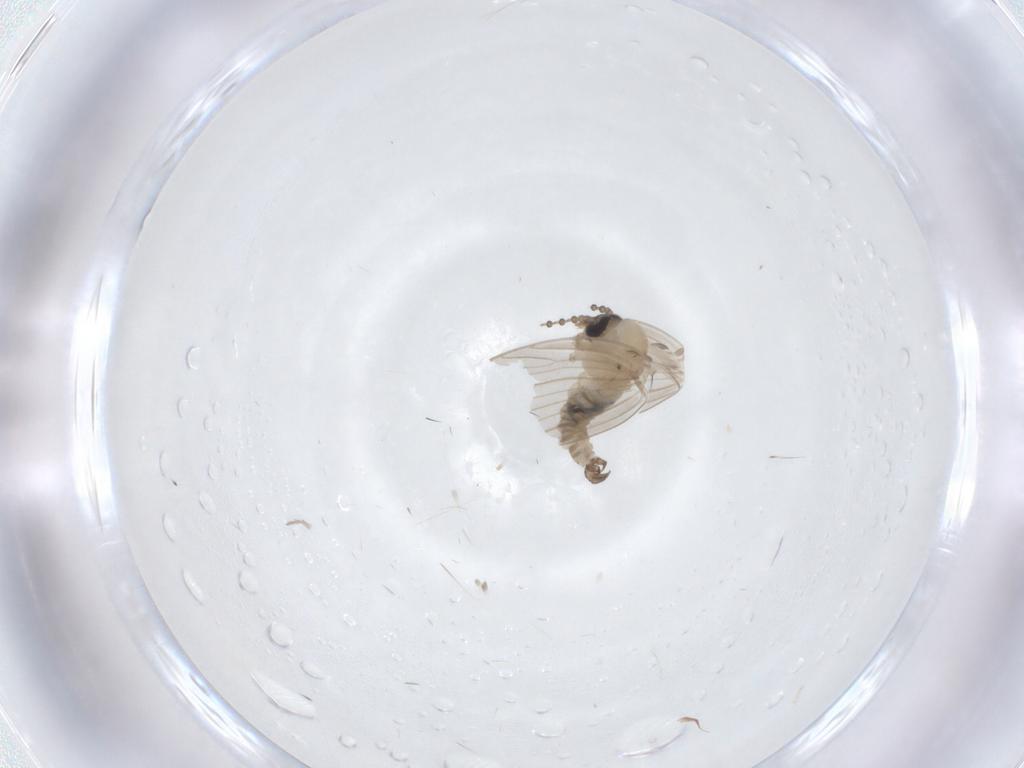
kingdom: Animalia
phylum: Arthropoda
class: Insecta
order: Diptera
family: Psychodidae
